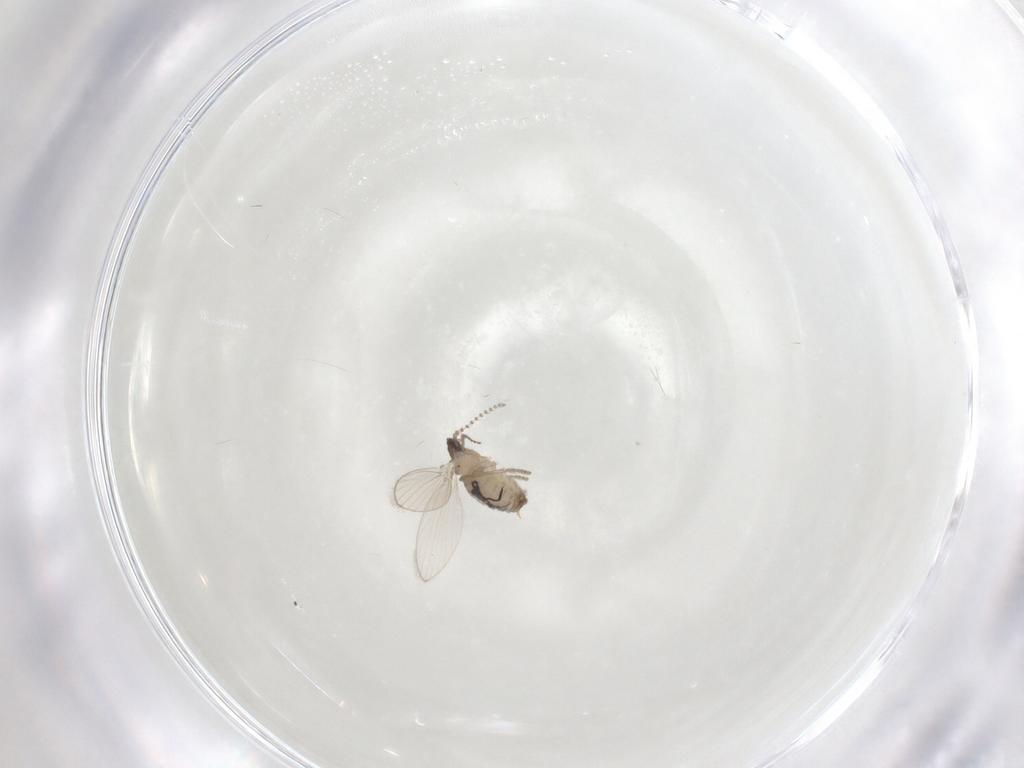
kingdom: Animalia
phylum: Arthropoda
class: Insecta
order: Diptera
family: Psychodidae
